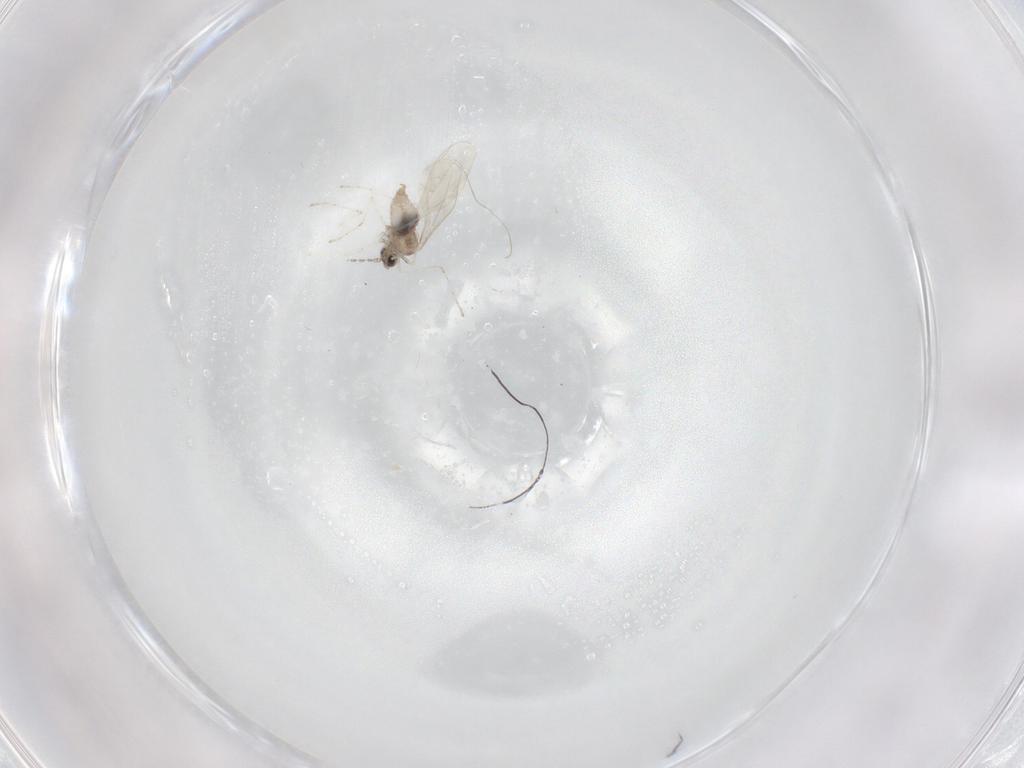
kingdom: Animalia
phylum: Arthropoda
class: Insecta
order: Diptera
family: Cecidomyiidae
